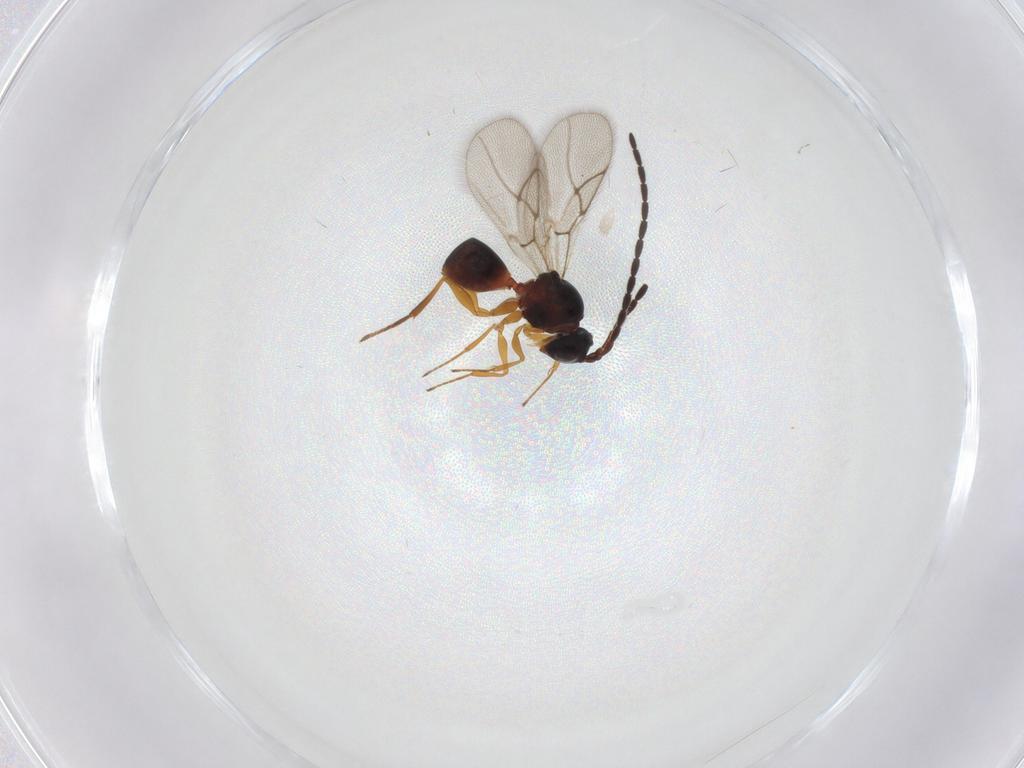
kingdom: Animalia
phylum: Arthropoda
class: Insecta
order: Hymenoptera
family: Figitidae
